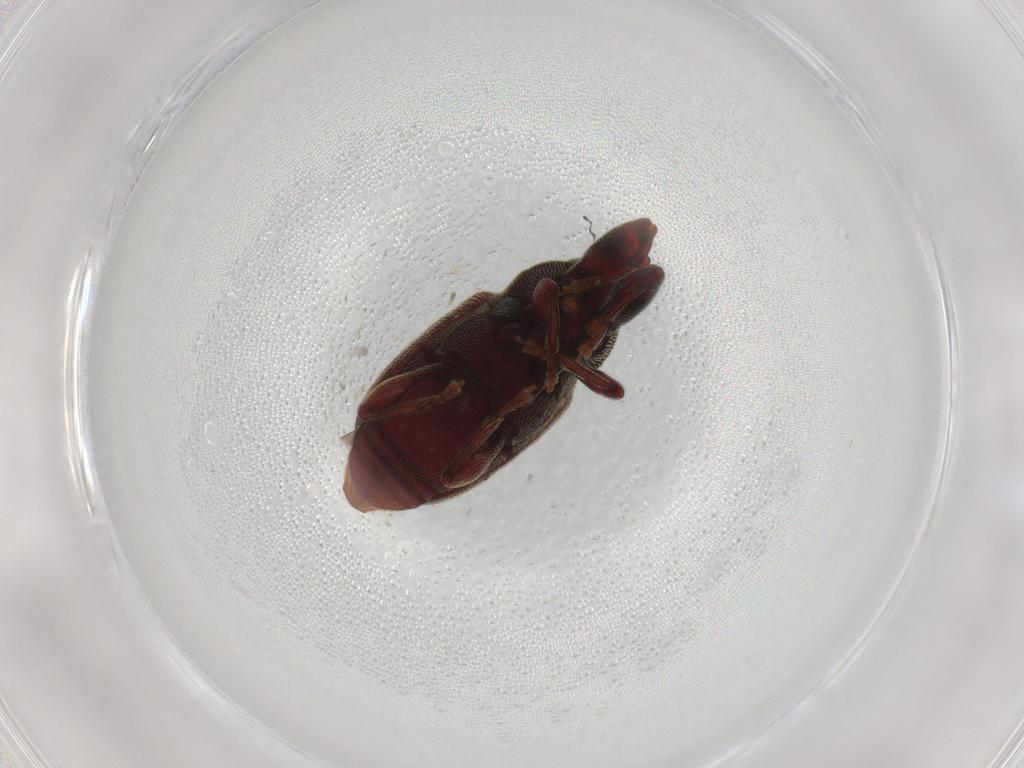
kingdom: Animalia
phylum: Arthropoda
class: Insecta
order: Coleoptera
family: Curculionidae
